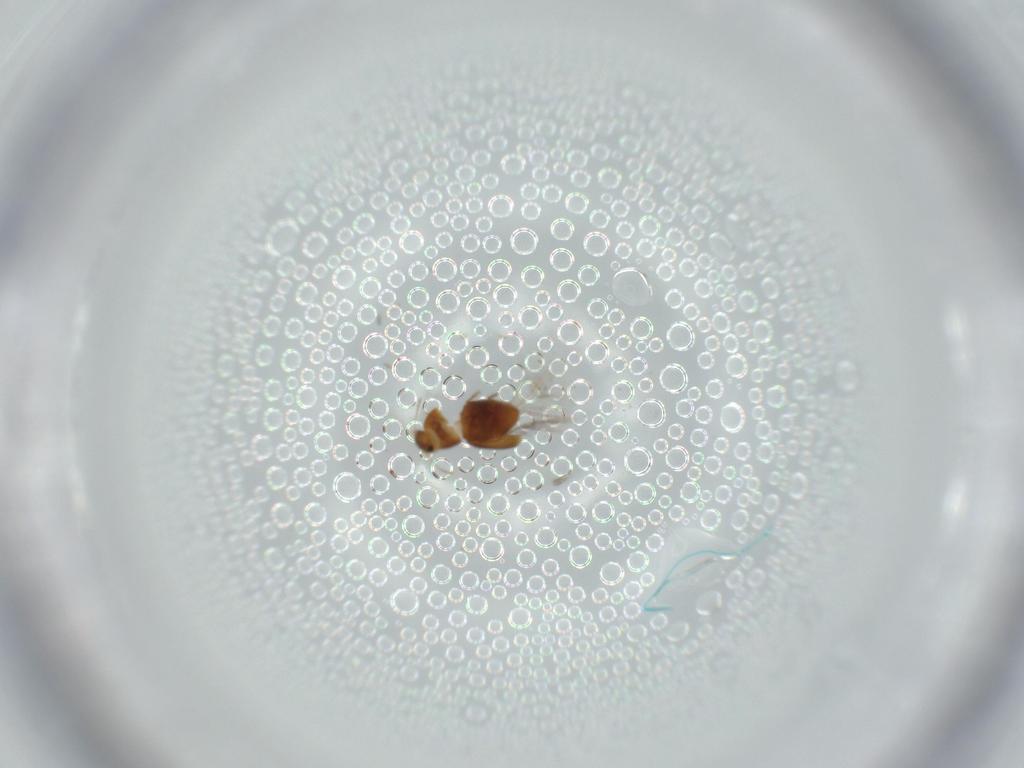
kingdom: Animalia
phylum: Arthropoda
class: Insecta
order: Coleoptera
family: Ptiliidae
